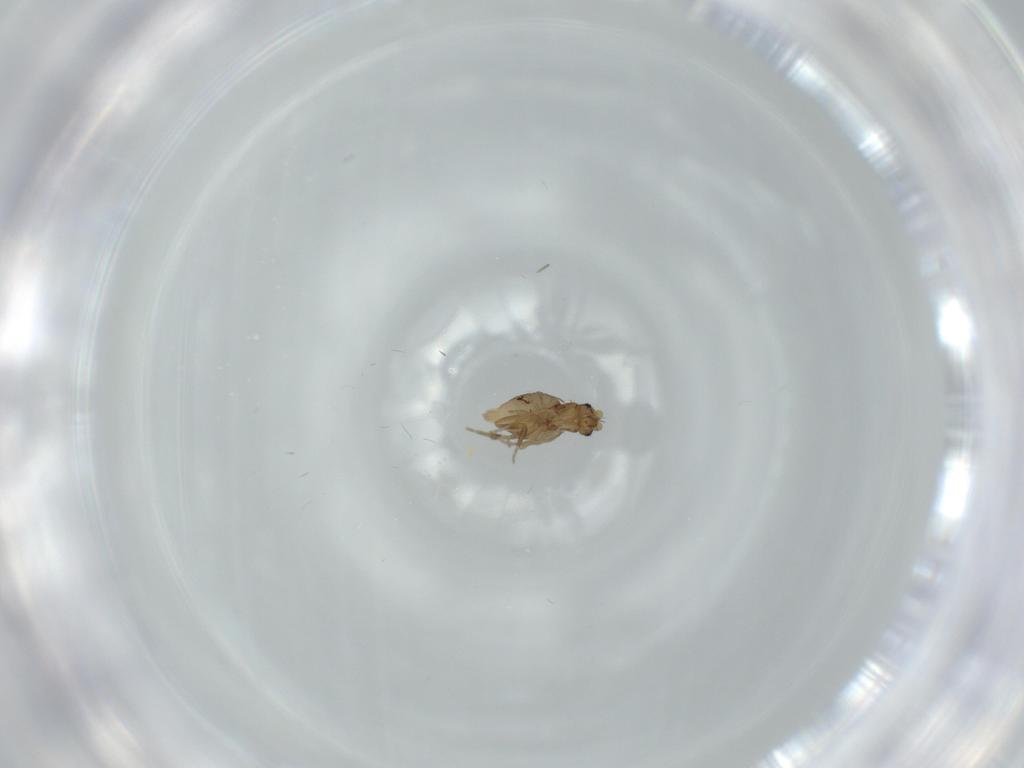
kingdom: Animalia
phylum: Arthropoda
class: Insecta
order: Diptera
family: Phoridae
